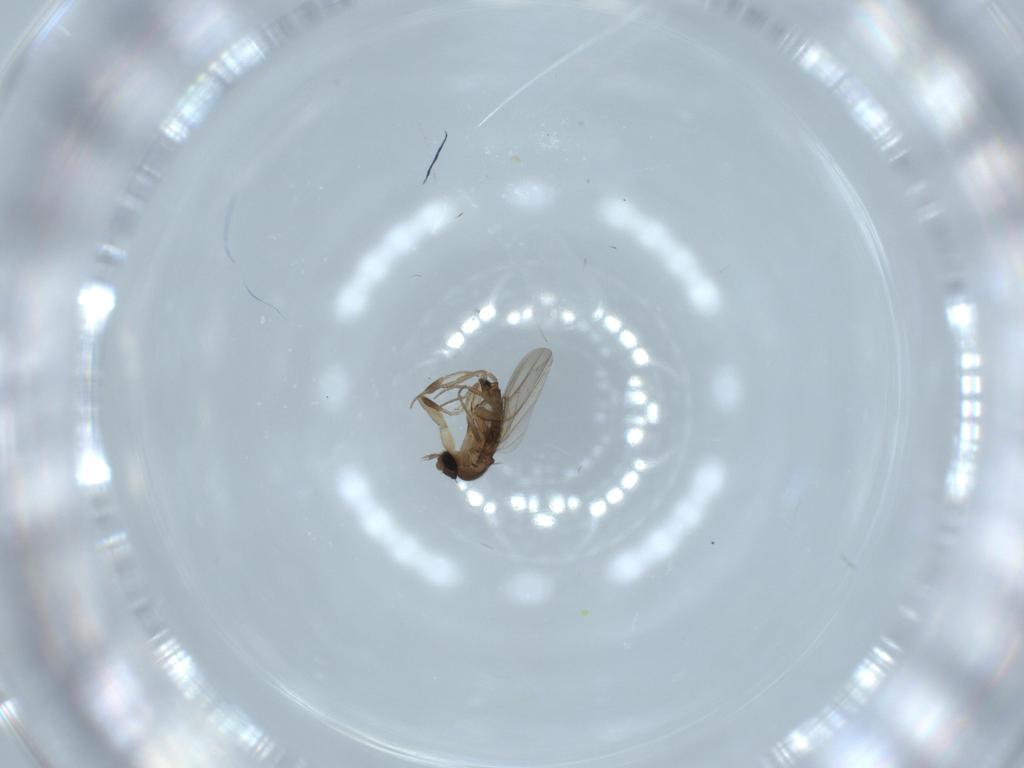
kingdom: Animalia
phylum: Arthropoda
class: Insecta
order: Diptera
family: Phoridae
